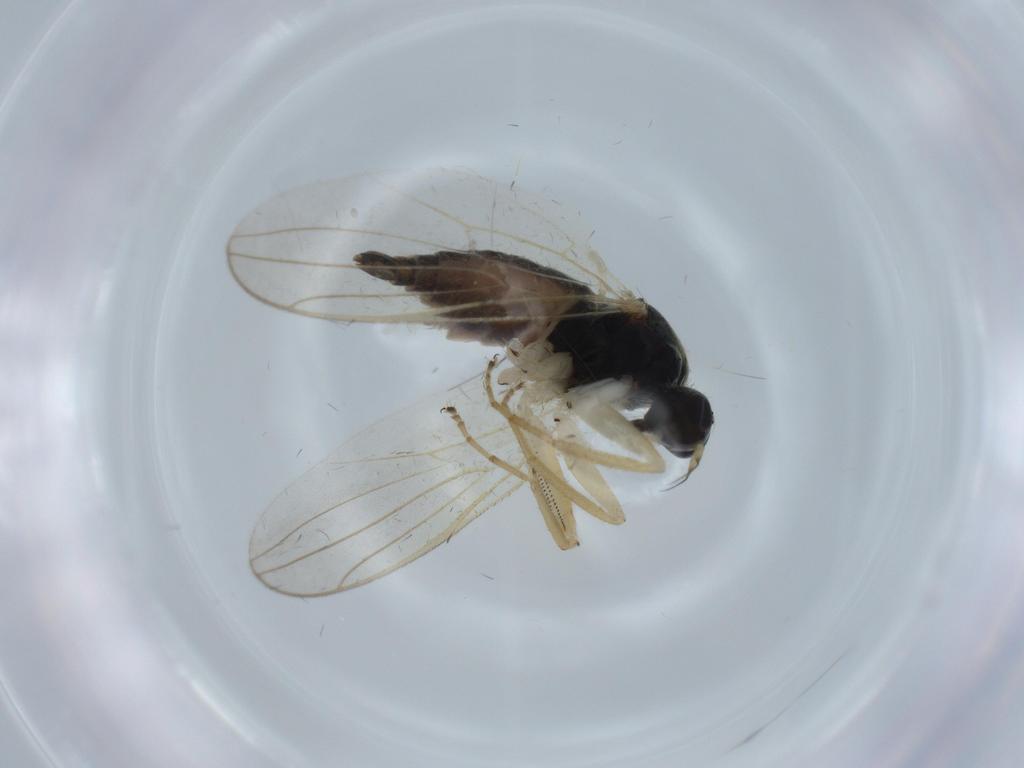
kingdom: Animalia
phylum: Arthropoda
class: Insecta
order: Diptera
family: Hybotidae
